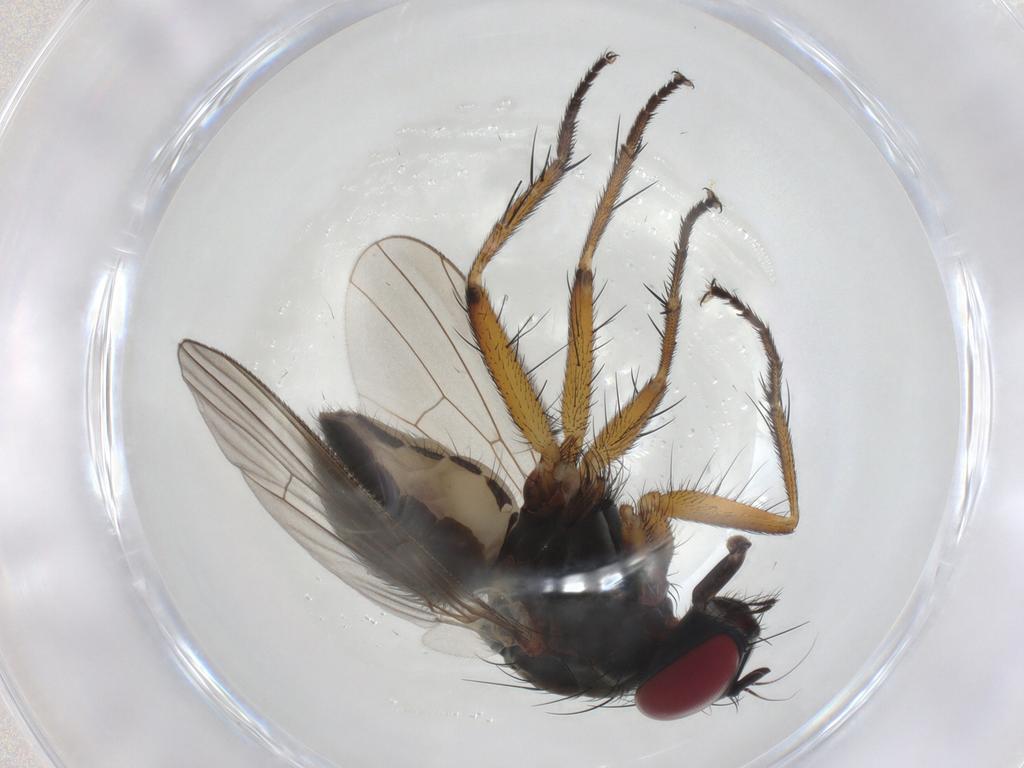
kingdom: Animalia
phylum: Arthropoda
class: Insecta
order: Diptera
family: Muscidae
